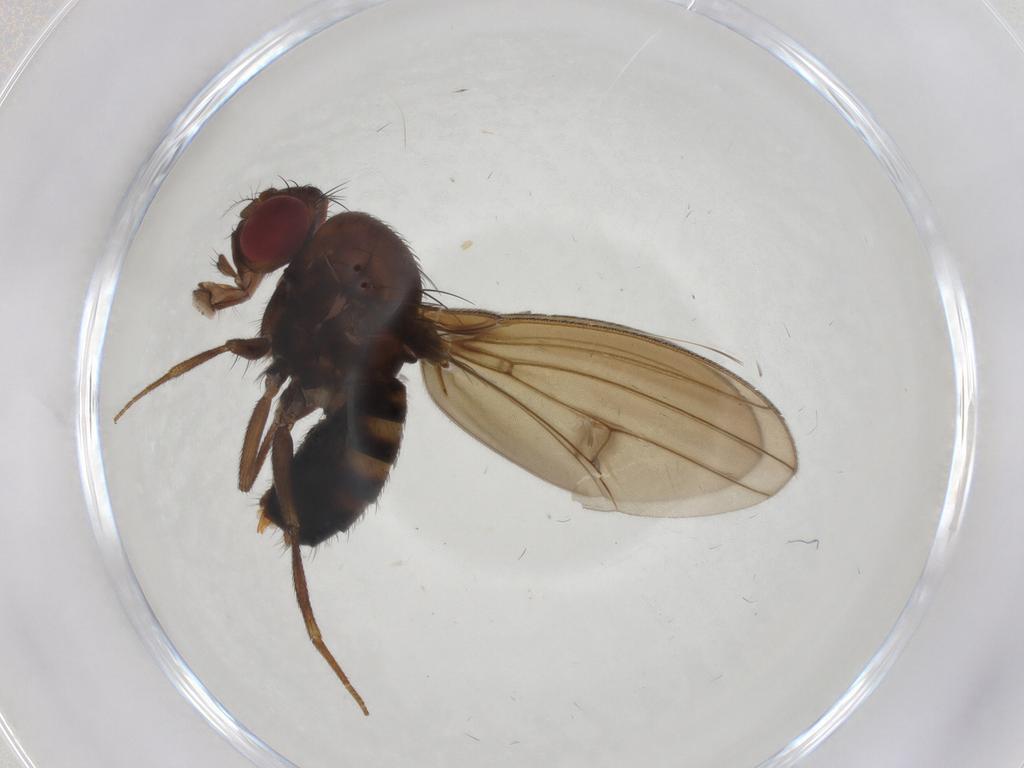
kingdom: Animalia
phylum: Arthropoda
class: Insecta
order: Diptera
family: Drosophilidae
